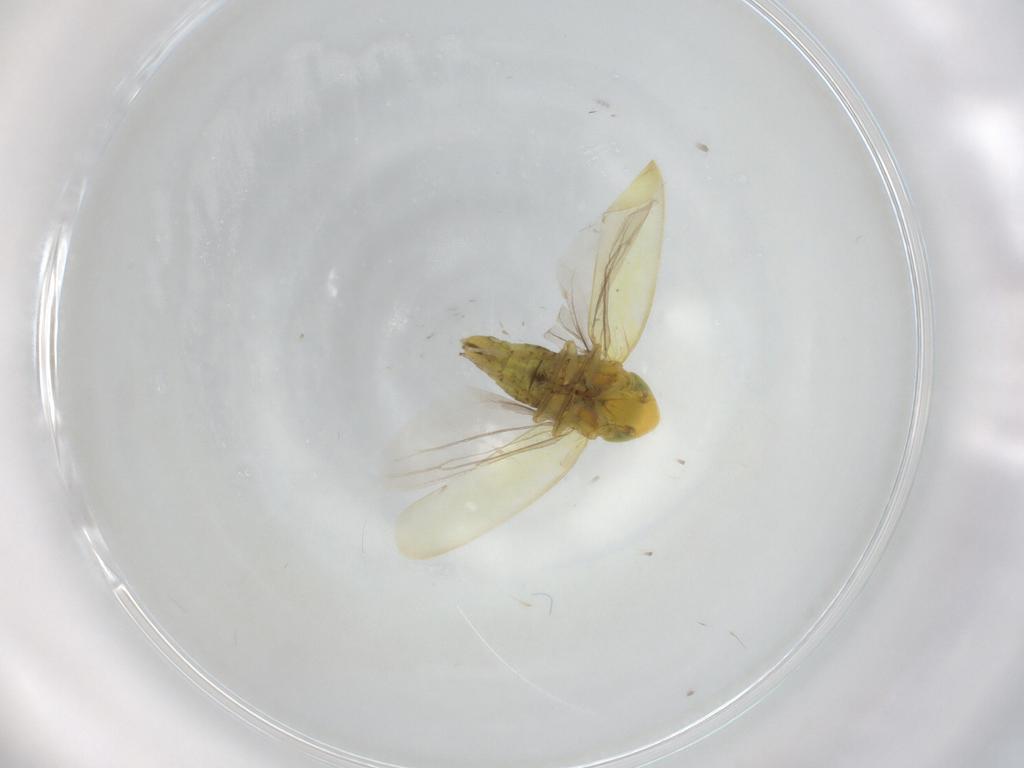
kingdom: Animalia
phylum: Arthropoda
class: Insecta
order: Hemiptera
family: Cicadellidae
